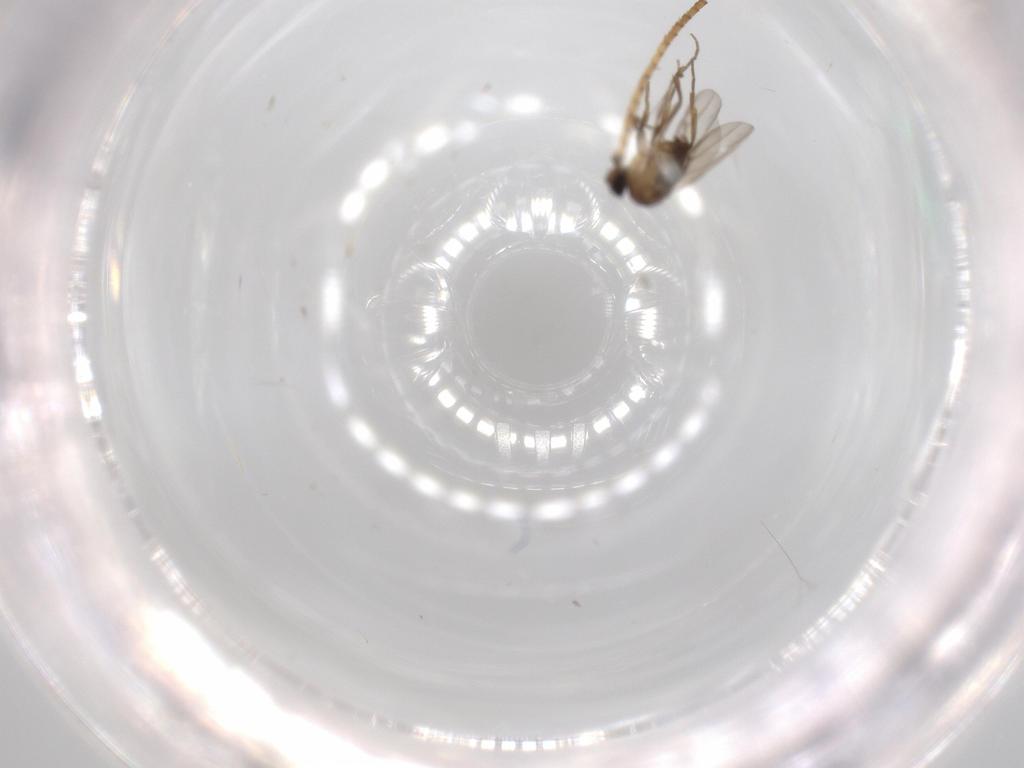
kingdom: Animalia
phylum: Arthropoda
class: Insecta
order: Diptera
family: Phoridae
